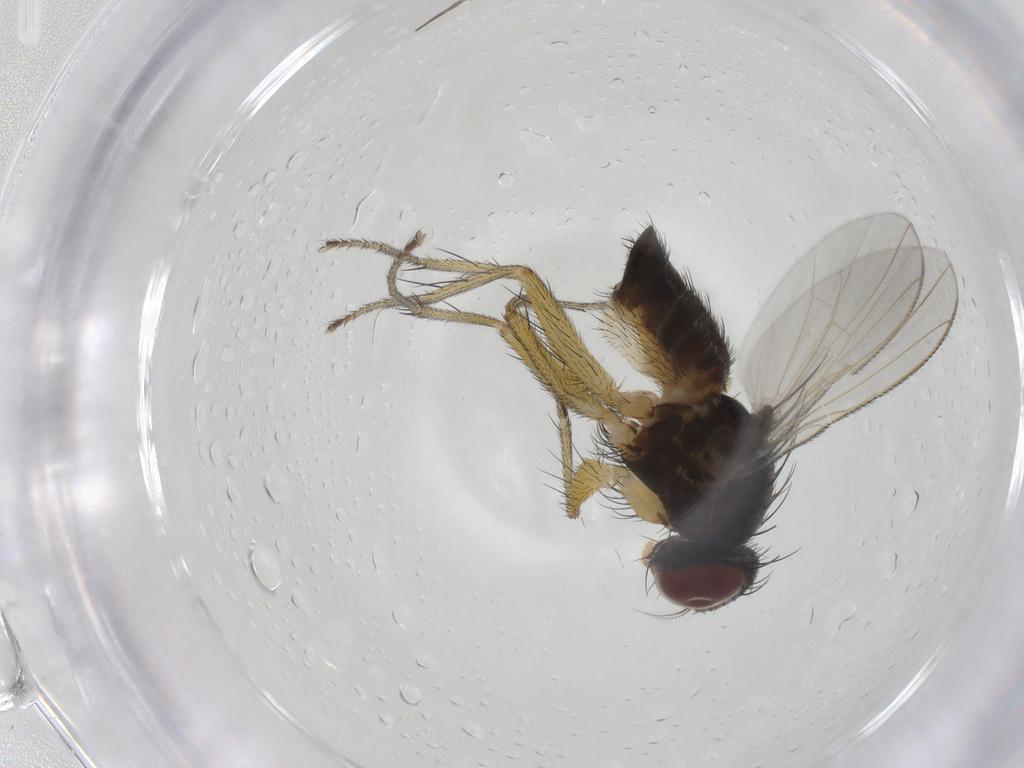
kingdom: Animalia
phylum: Arthropoda
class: Insecta
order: Diptera
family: Muscidae
